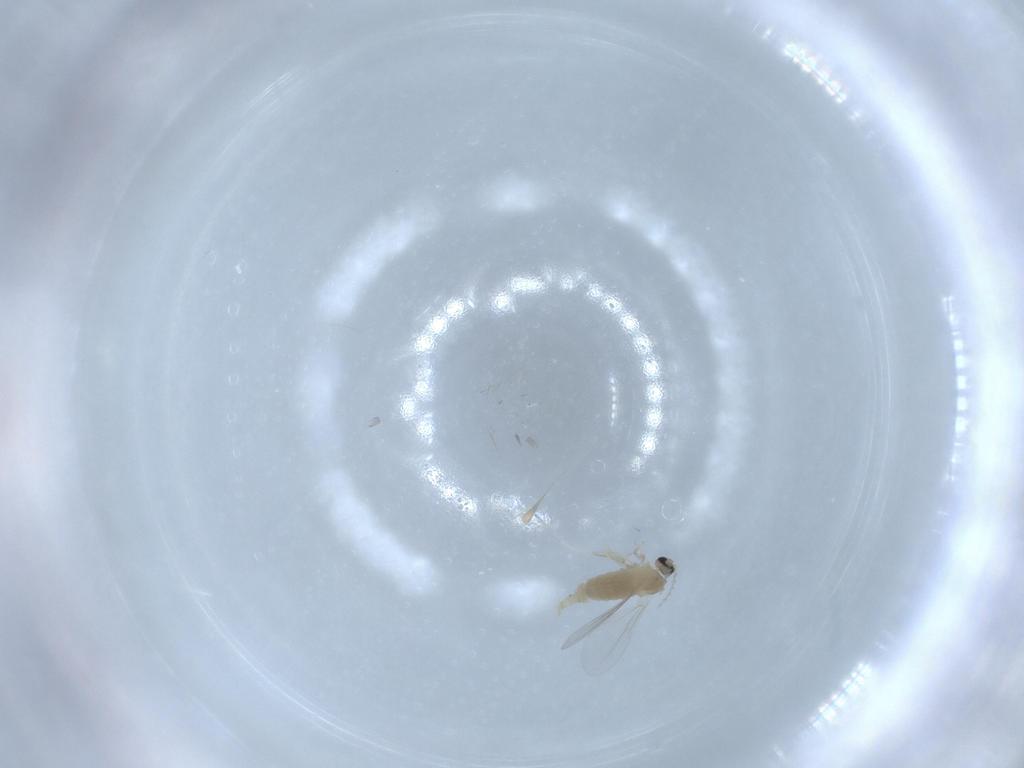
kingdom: Animalia
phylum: Arthropoda
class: Insecta
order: Diptera
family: Cecidomyiidae
